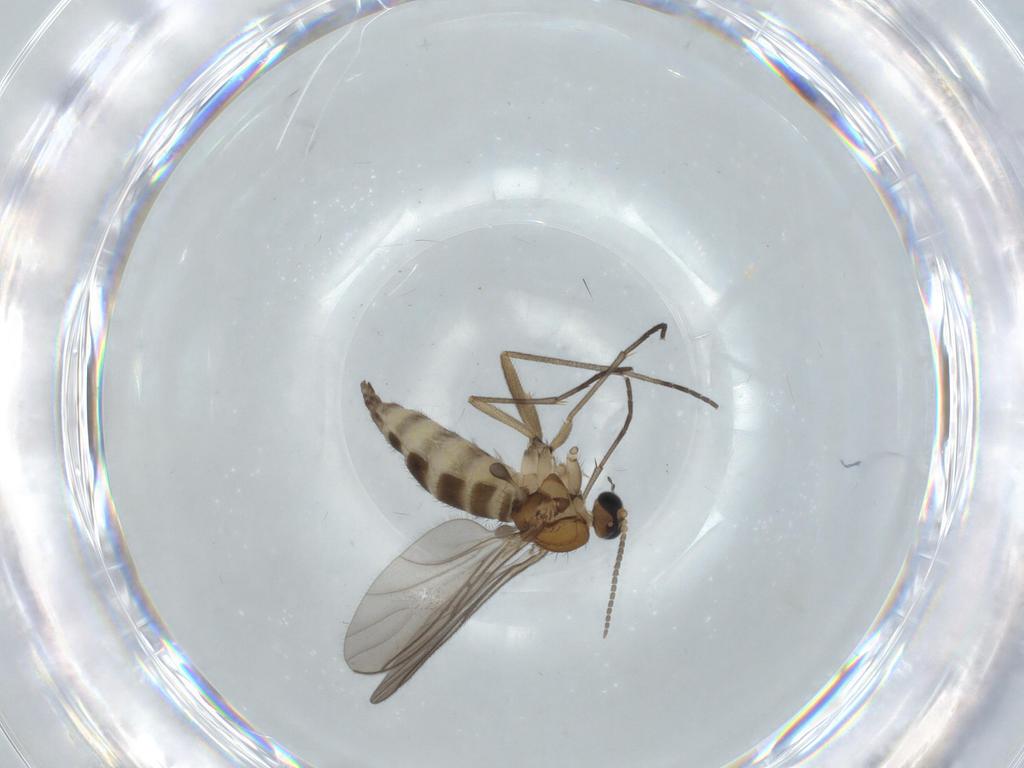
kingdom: Animalia
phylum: Arthropoda
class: Insecta
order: Diptera
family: Sciaridae
